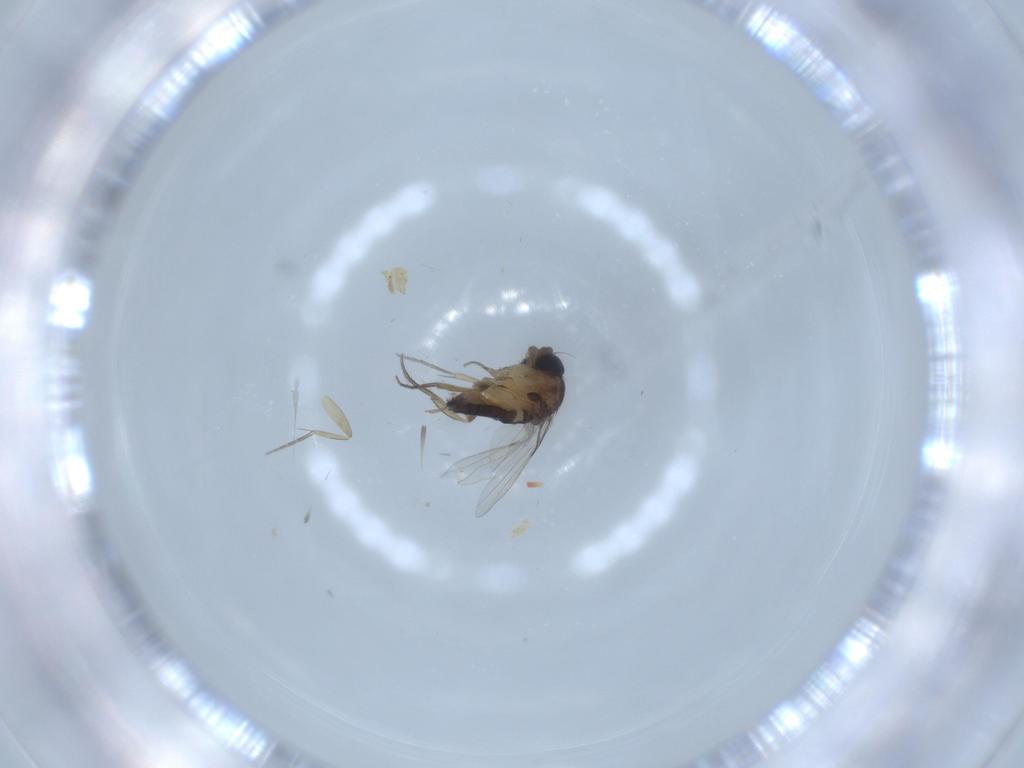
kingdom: Animalia
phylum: Arthropoda
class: Insecta
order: Diptera
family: Phoridae
